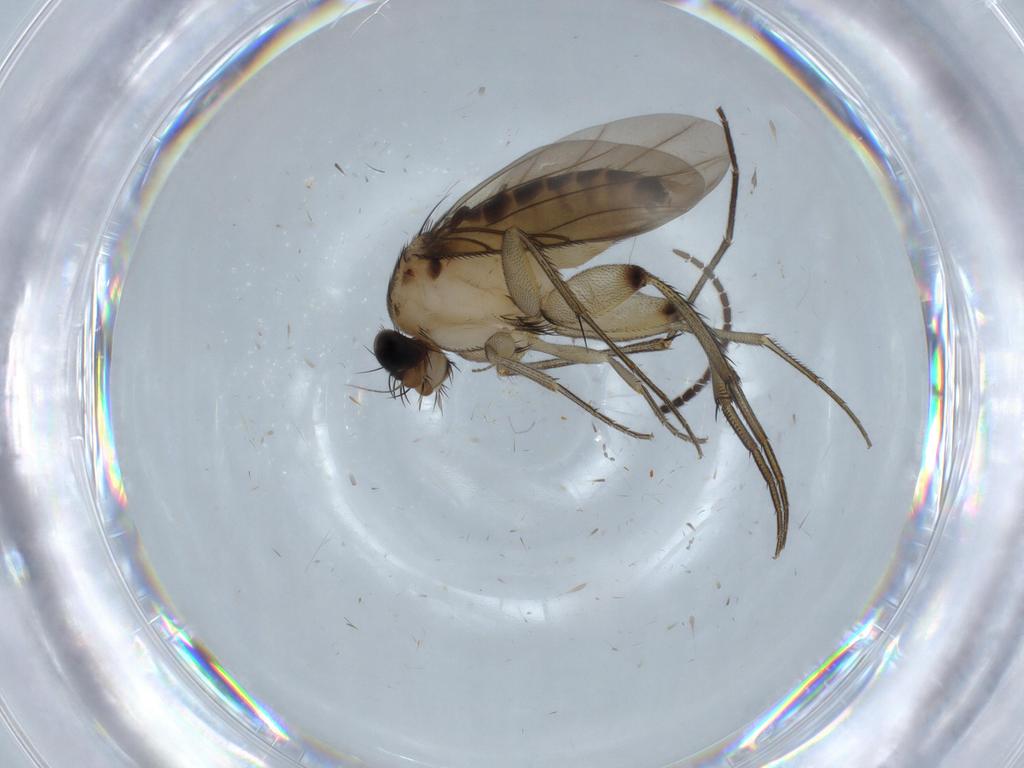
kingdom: Animalia
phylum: Arthropoda
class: Insecta
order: Diptera
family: Sciaridae
